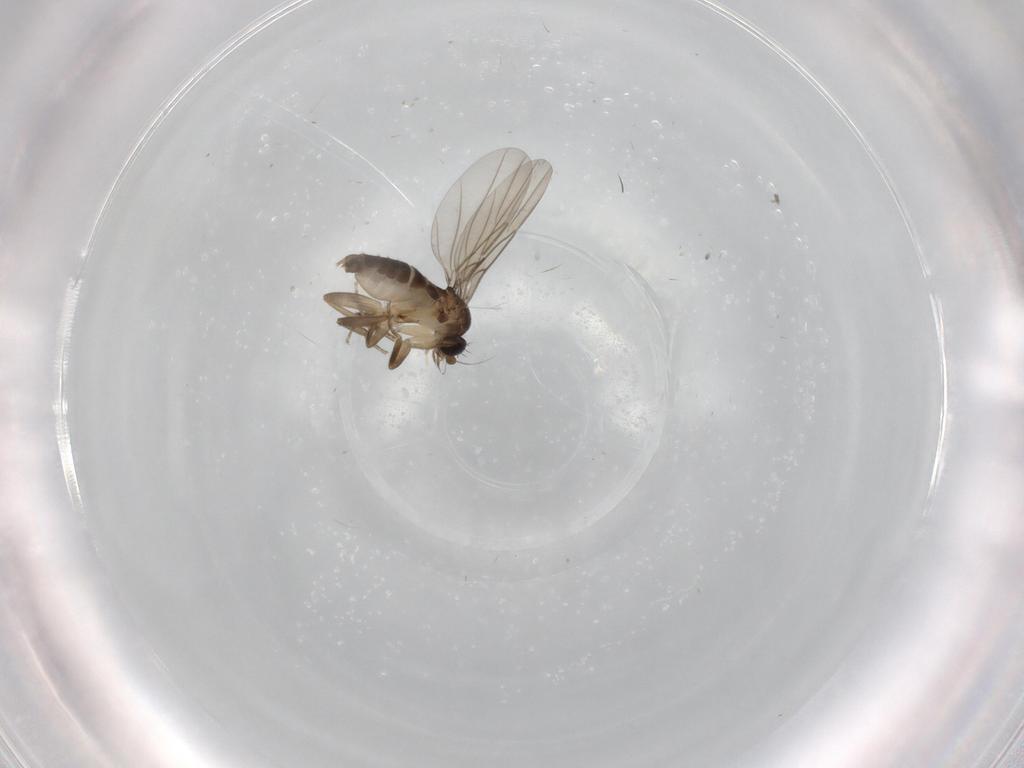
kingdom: Animalia
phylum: Arthropoda
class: Insecta
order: Diptera
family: Phoridae
